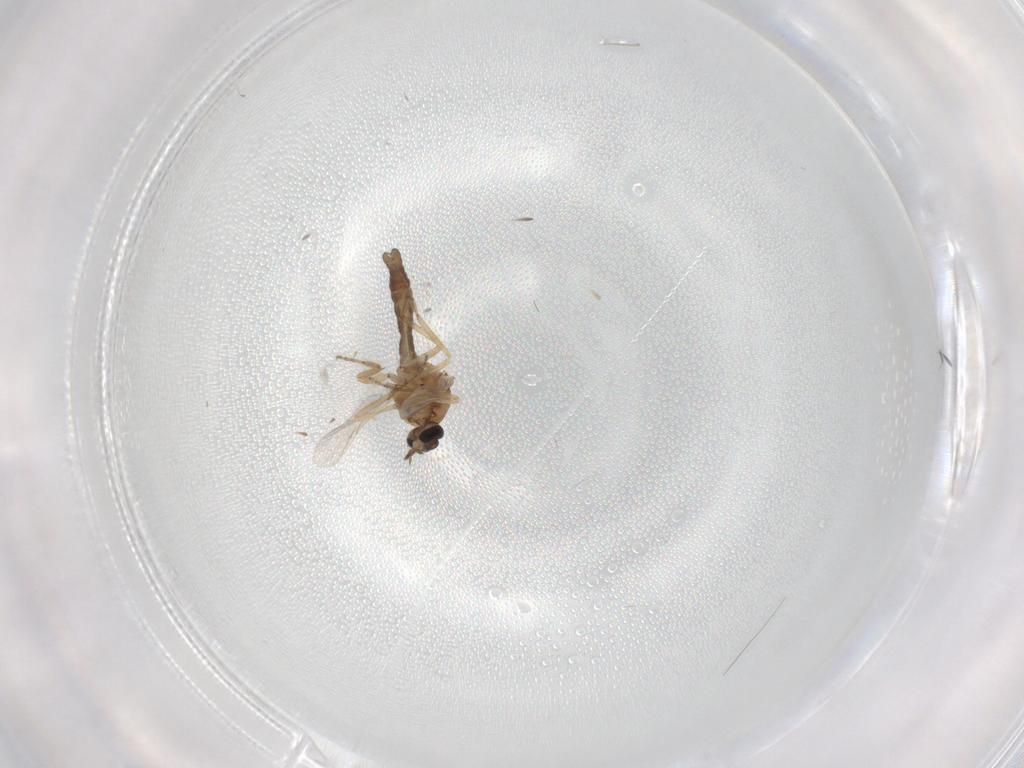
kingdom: Animalia
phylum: Arthropoda
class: Insecta
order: Diptera
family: Ceratopogonidae
